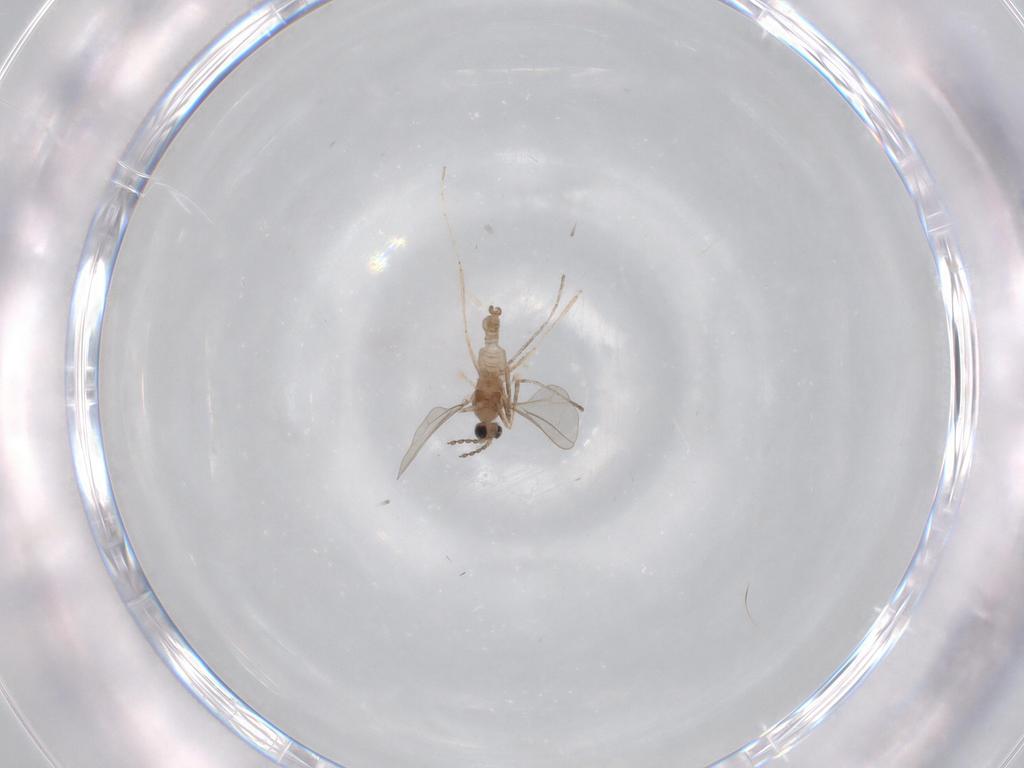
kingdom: Animalia
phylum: Arthropoda
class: Insecta
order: Diptera
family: Cecidomyiidae
